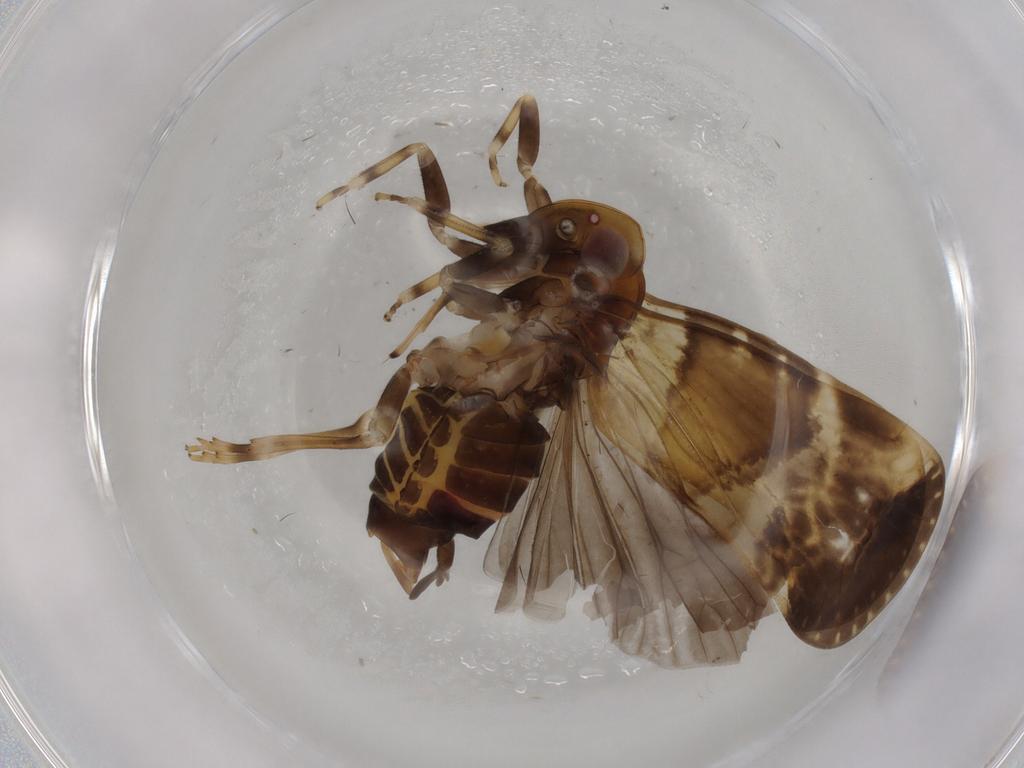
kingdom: Animalia
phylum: Arthropoda
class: Insecta
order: Hemiptera
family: Cixiidae
